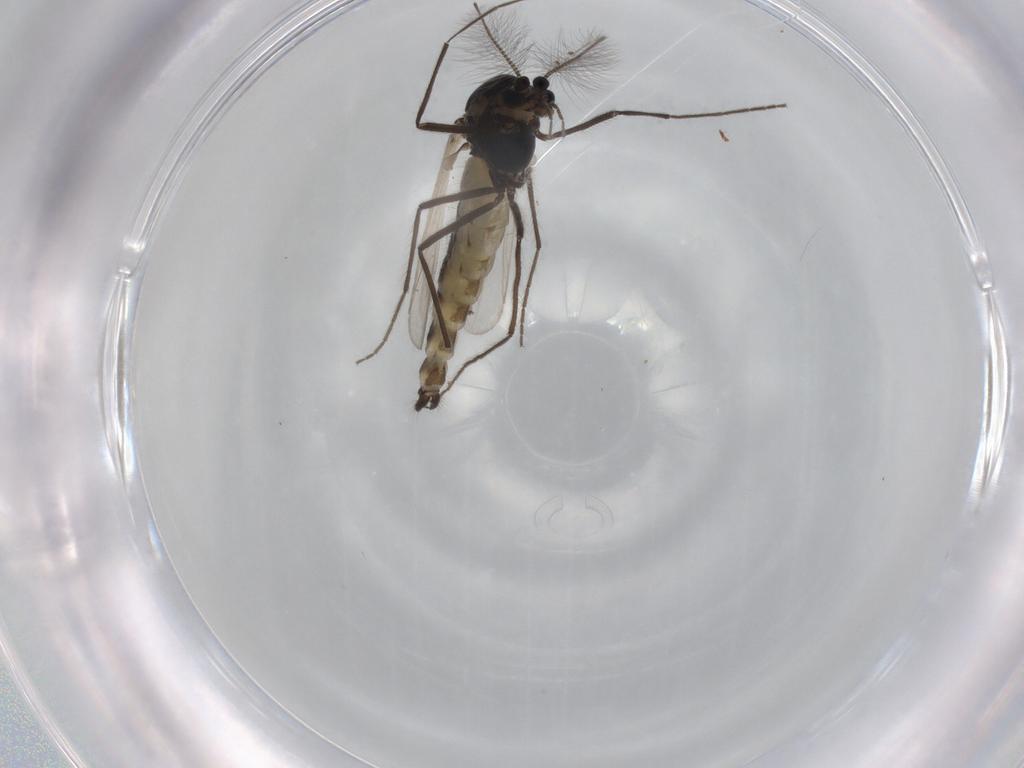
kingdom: Animalia
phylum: Arthropoda
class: Insecta
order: Diptera
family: Chironomidae
